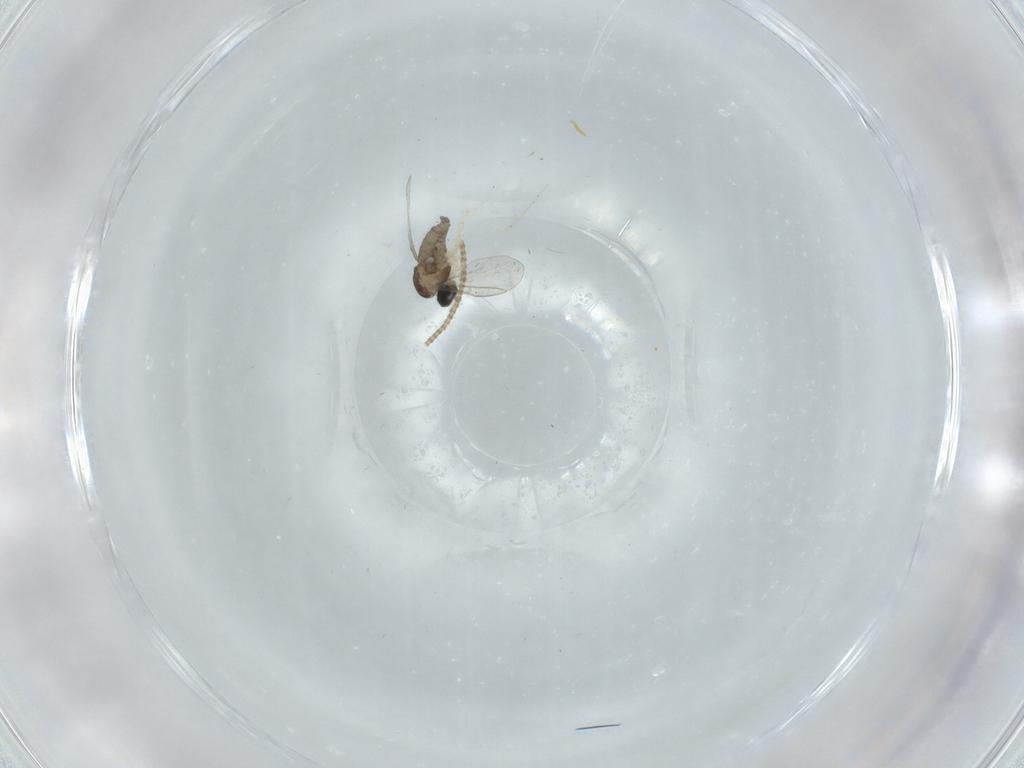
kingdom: Animalia
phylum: Arthropoda
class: Insecta
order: Diptera
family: Cecidomyiidae
